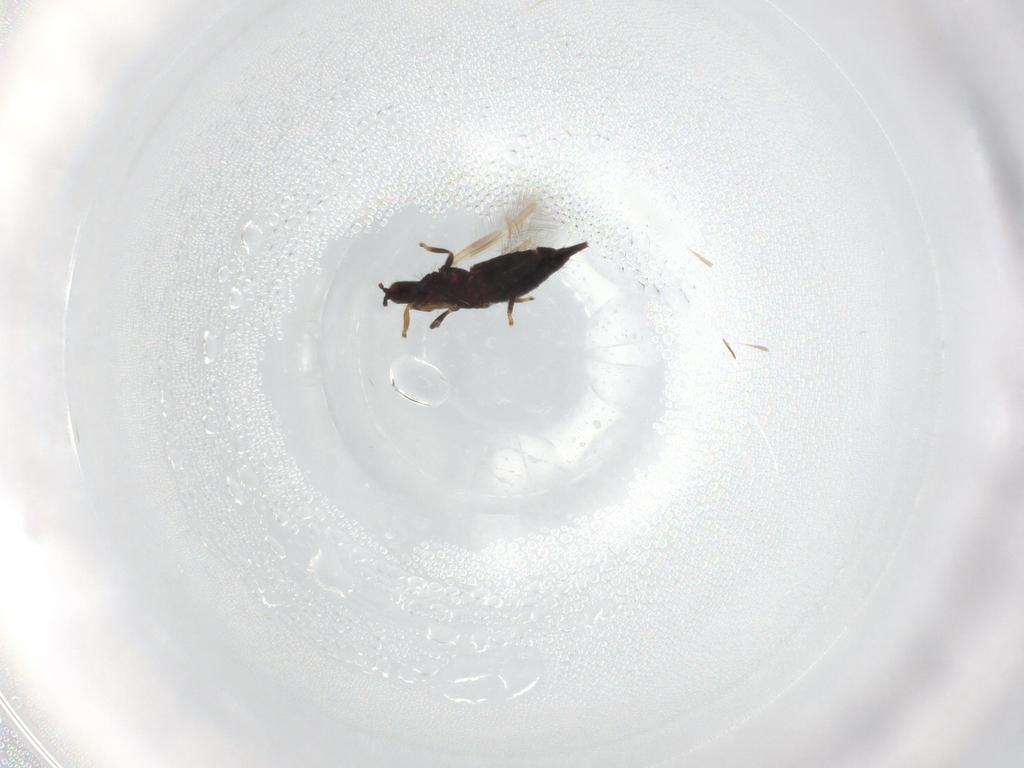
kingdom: Animalia
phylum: Arthropoda
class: Insecta
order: Thysanoptera
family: Phlaeothripidae
